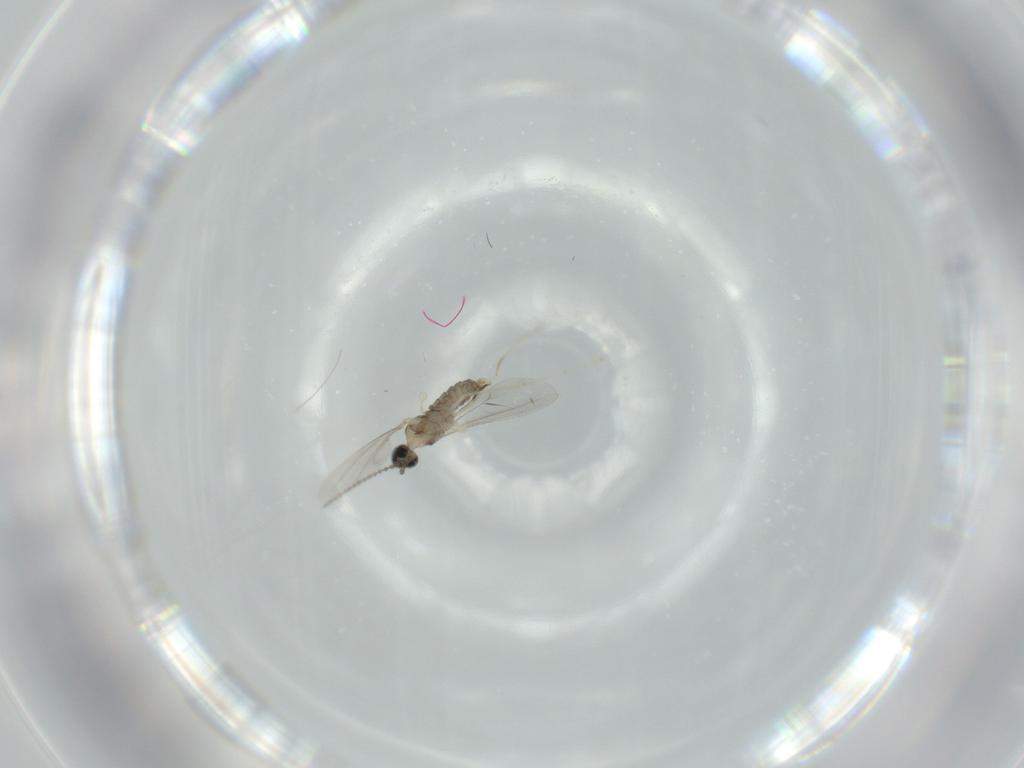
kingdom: Animalia
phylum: Arthropoda
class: Insecta
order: Diptera
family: Cecidomyiidae
